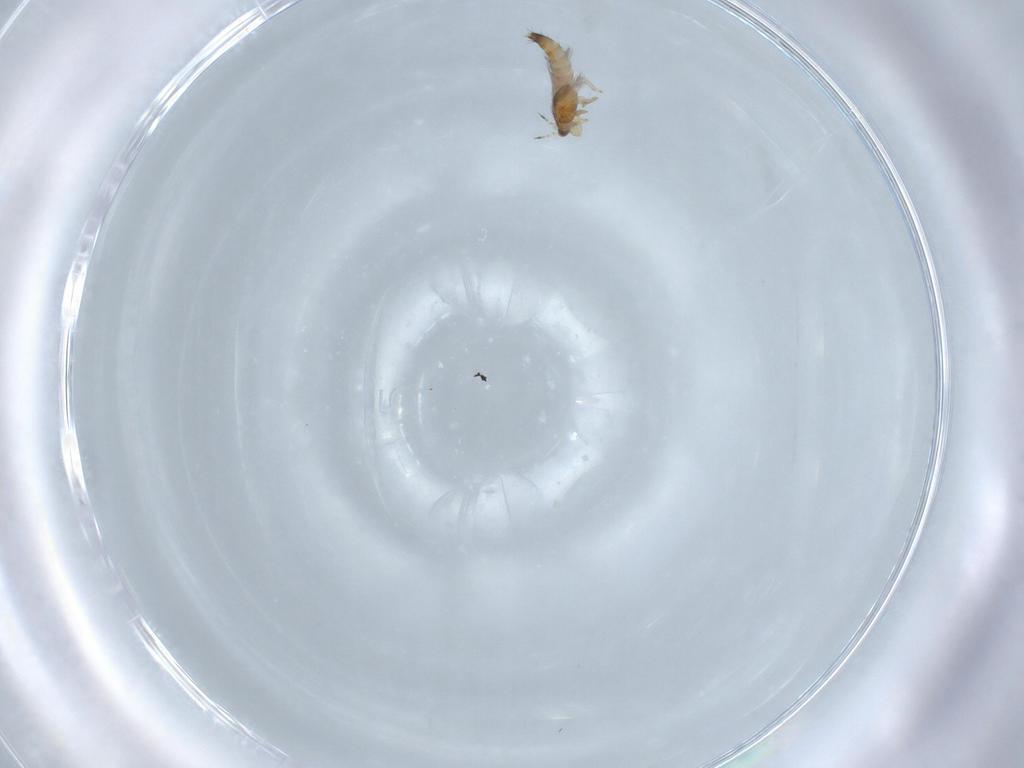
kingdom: Animalia
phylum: Arthropoda
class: Insecta
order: Thysanoptera
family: Thripidae
